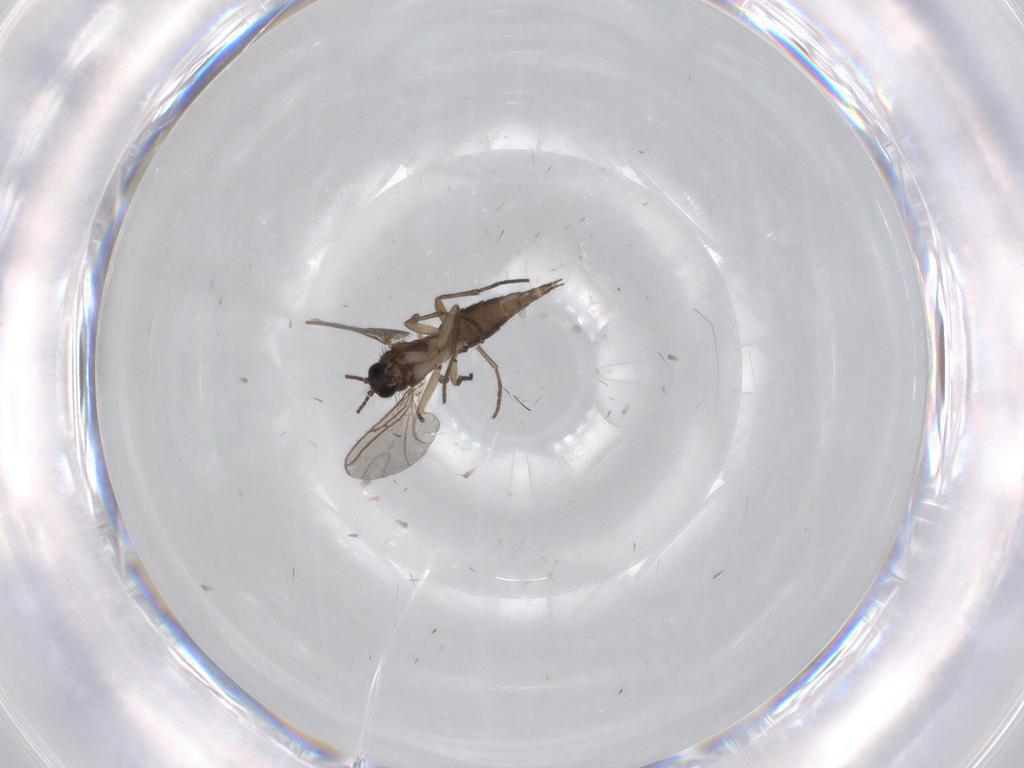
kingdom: Animalia
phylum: Arthropoda
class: Insecta
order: Diptera
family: Sciaridae
